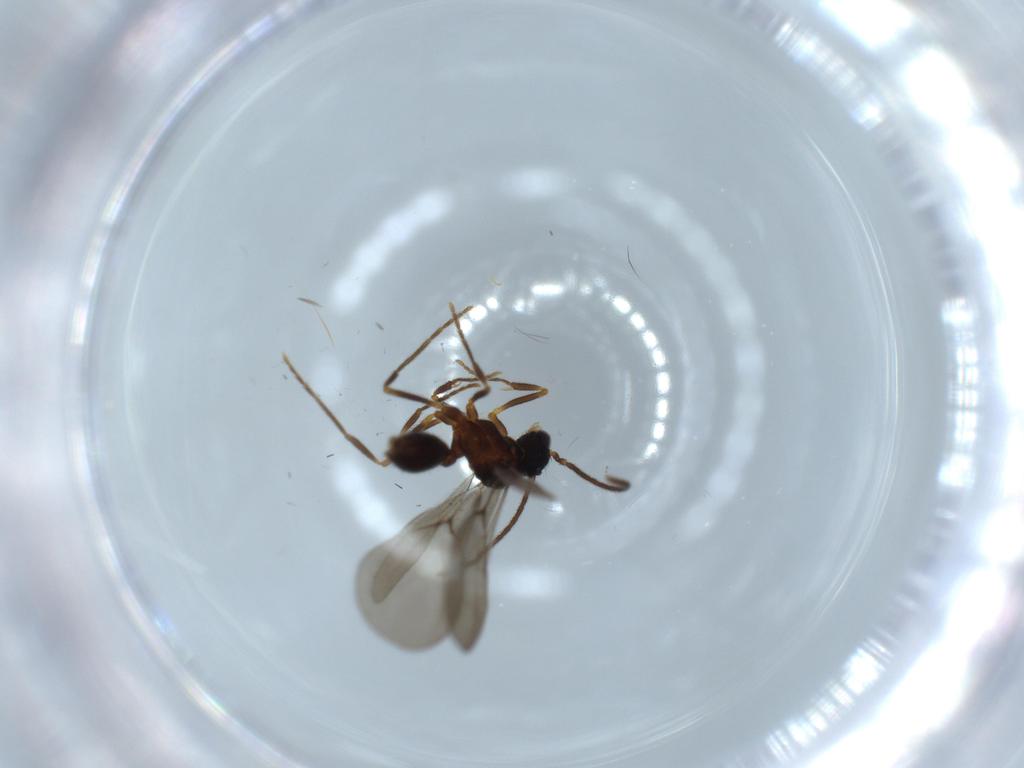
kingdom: Animalia
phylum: Arthropoda
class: Insecta
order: Hymenoptera
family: Formicidae
